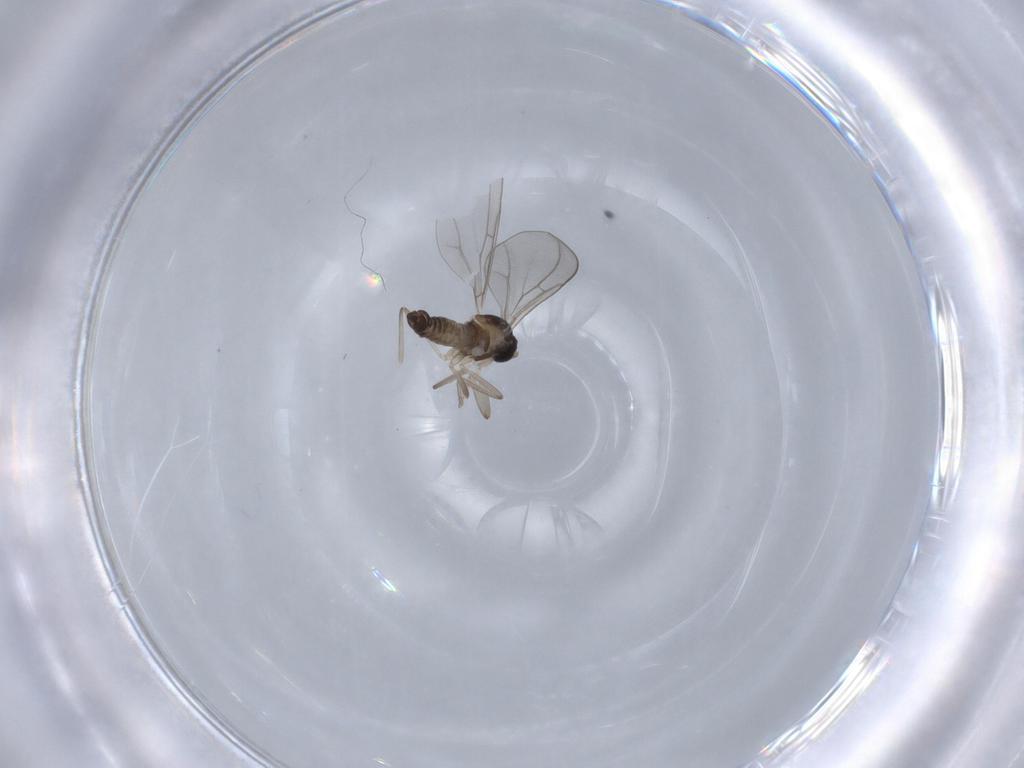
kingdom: Animalia
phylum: Arthropoda
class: Insecta
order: Diptera
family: Cecidomyiidae
